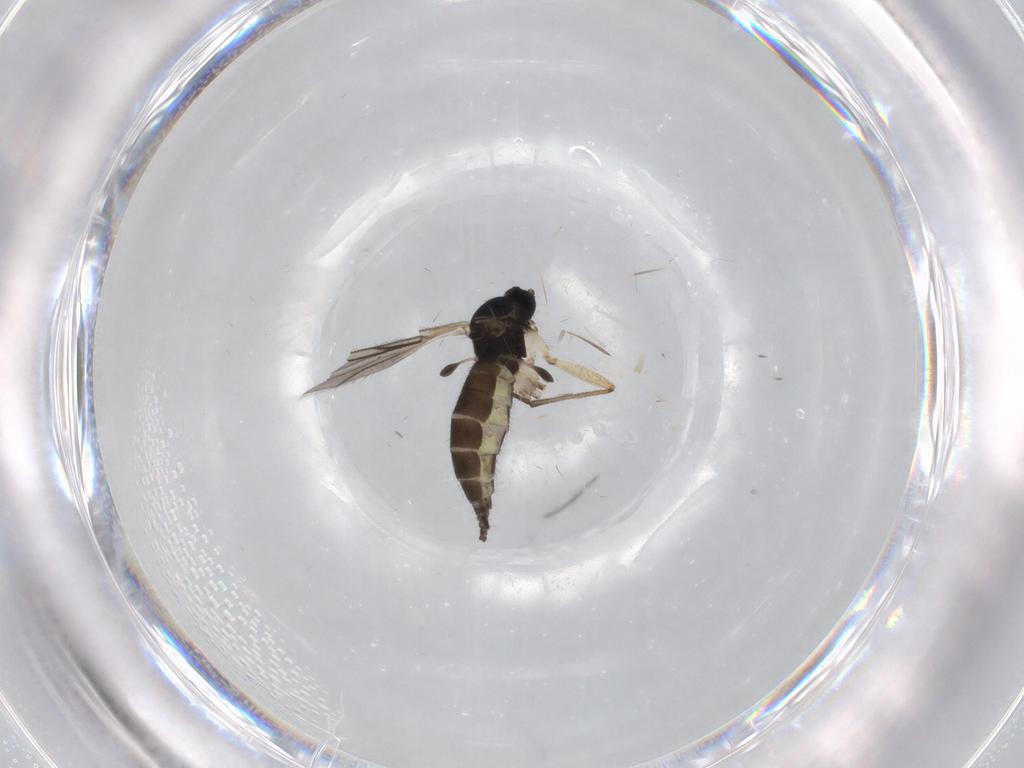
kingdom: Animalia
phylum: Arthropoda
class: Insecta
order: Diptera
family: Sciaridae
